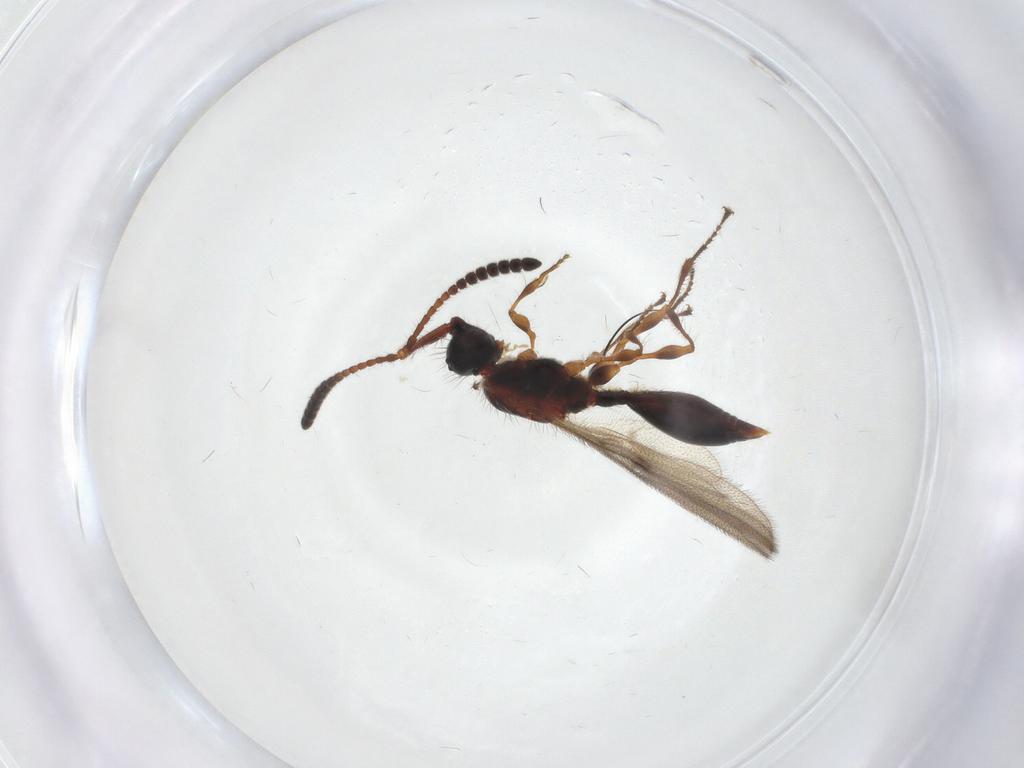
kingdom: Animalia
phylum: Arthropoda
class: Insecta
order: Hymenoptera
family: Diapriidae
